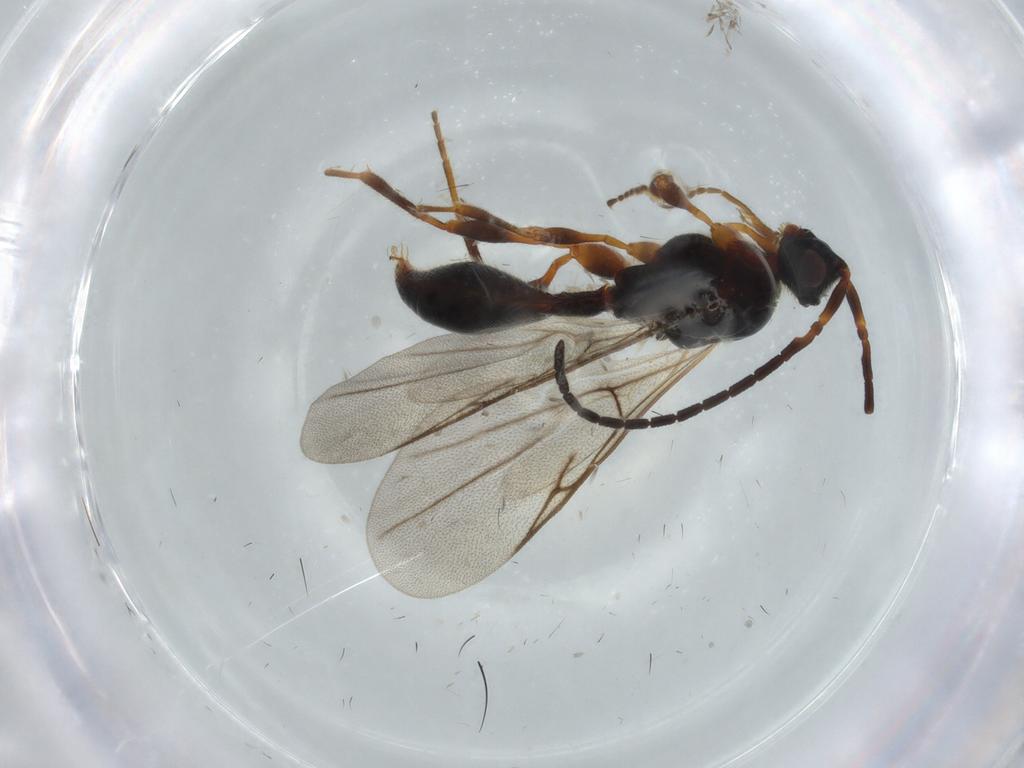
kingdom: Animalia
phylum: Arthropoda
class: Insecta
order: Hymenoptera
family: Diapriidae
